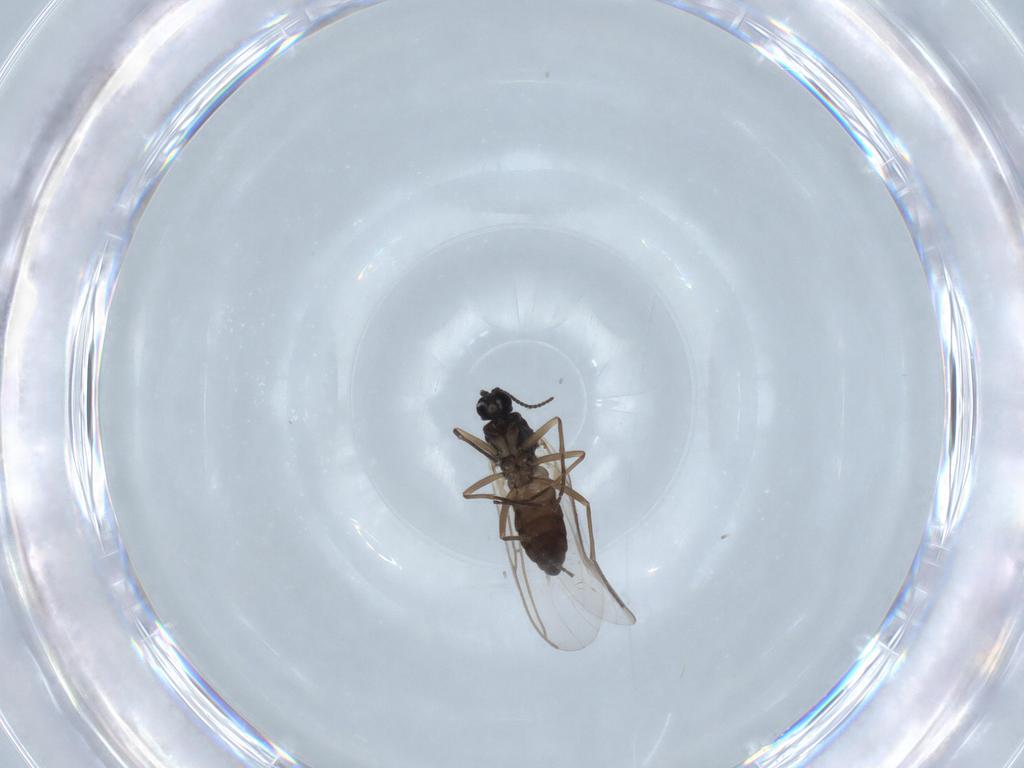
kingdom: Animalia
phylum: Arthropoda
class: Insecta
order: Diptera
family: Sciaridae
